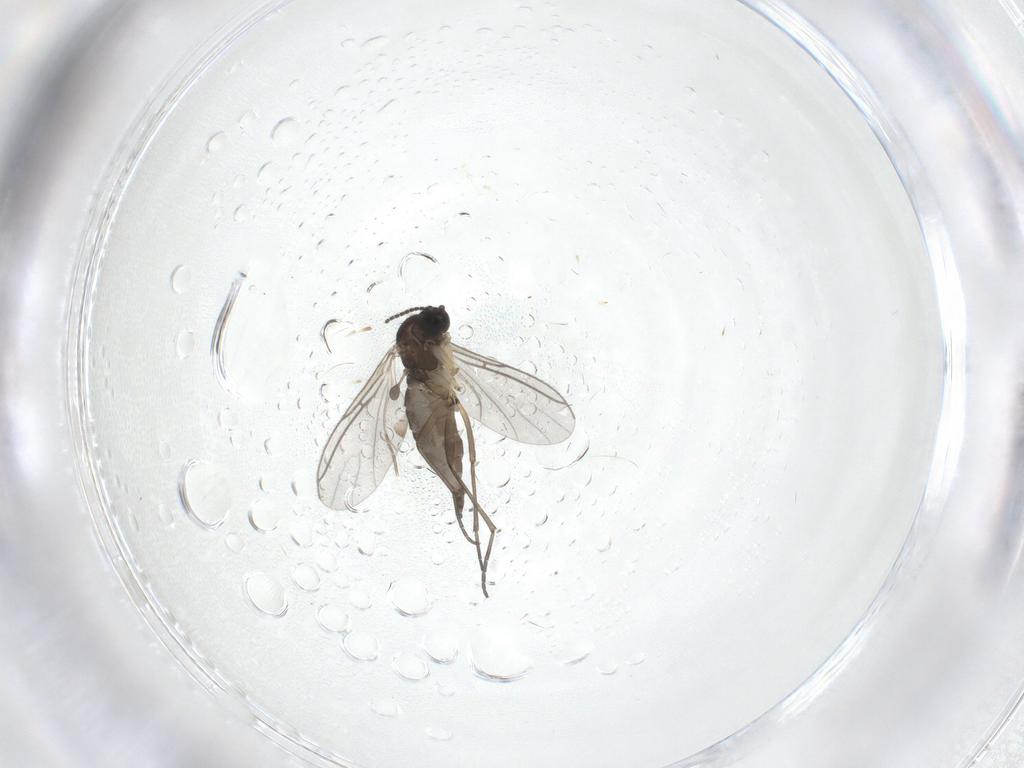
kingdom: Animalia
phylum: Arthropoda
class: Insecta
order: Diptera
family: Sciaridae
